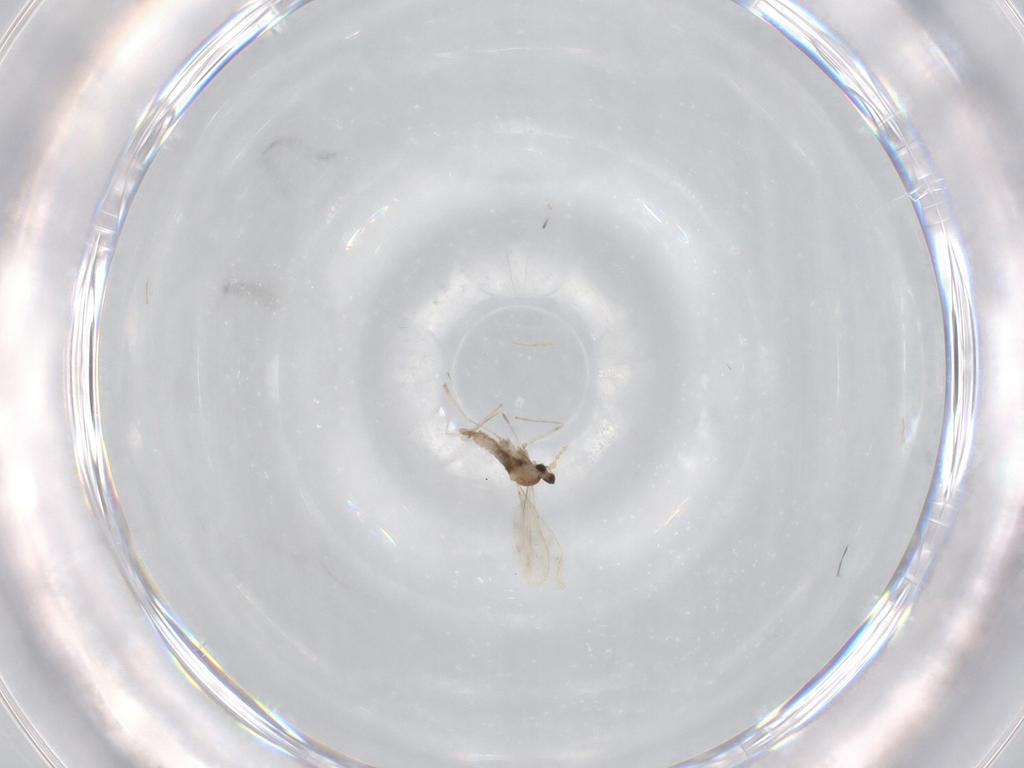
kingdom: Animalia
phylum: Arthropoda
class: Insecta
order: Diptera
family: Cecidomyiidae
